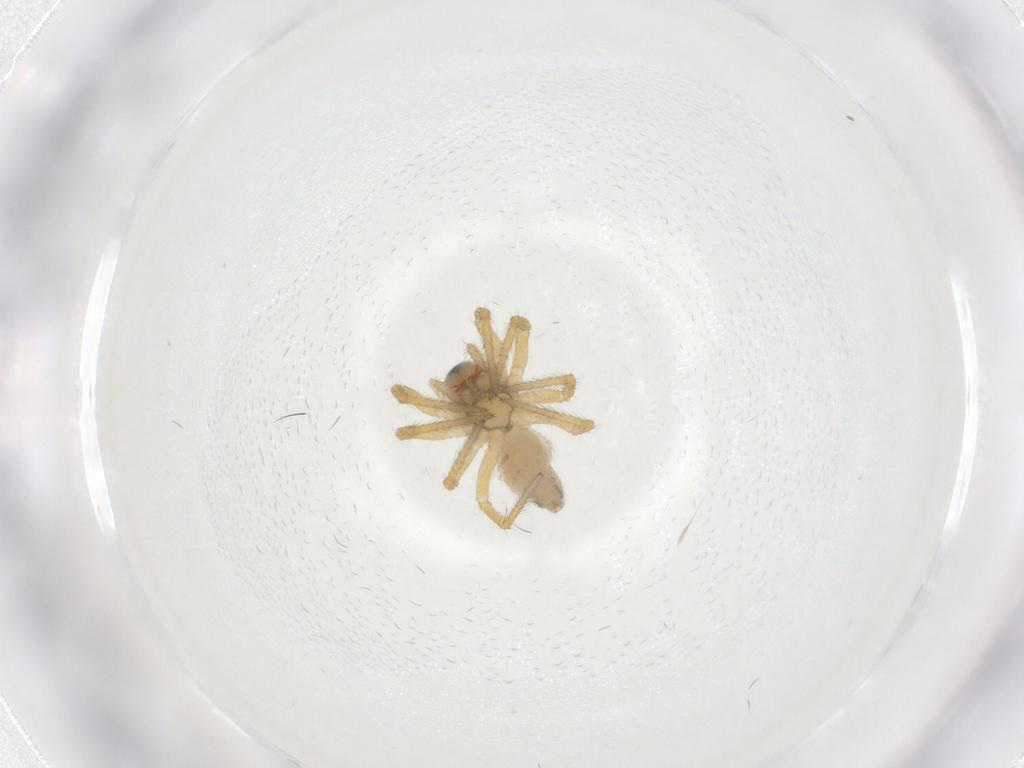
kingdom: Animalia
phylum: Arthropoda
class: Arachnida
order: Araneae
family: Linyphiidae
